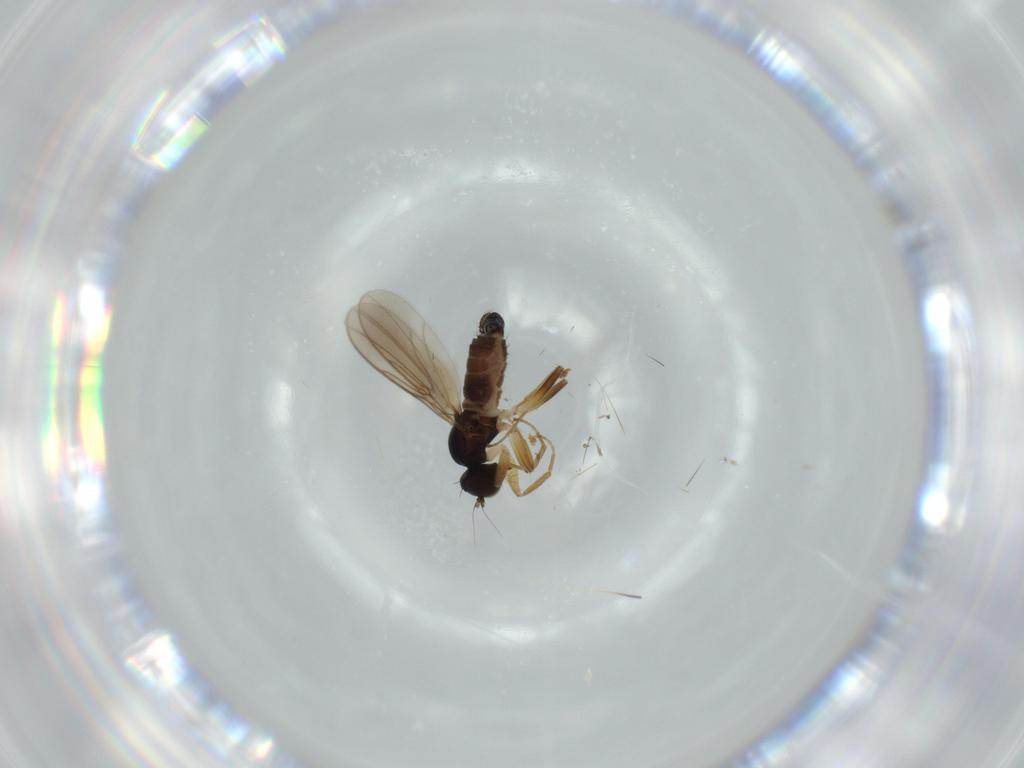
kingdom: Animalia
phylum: Arthropoda
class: Insecta
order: Diptera
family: Hybotidae
